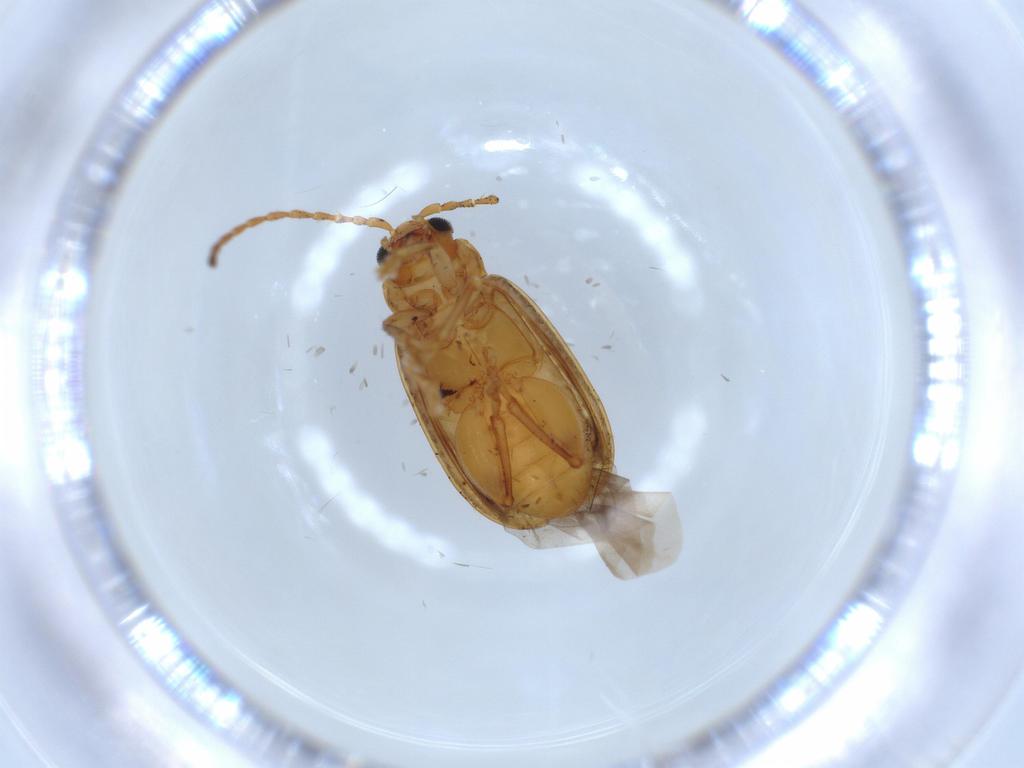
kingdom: Animalia
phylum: Arthropoda
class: Insecta
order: Coleoptera
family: Chrysomelidae
